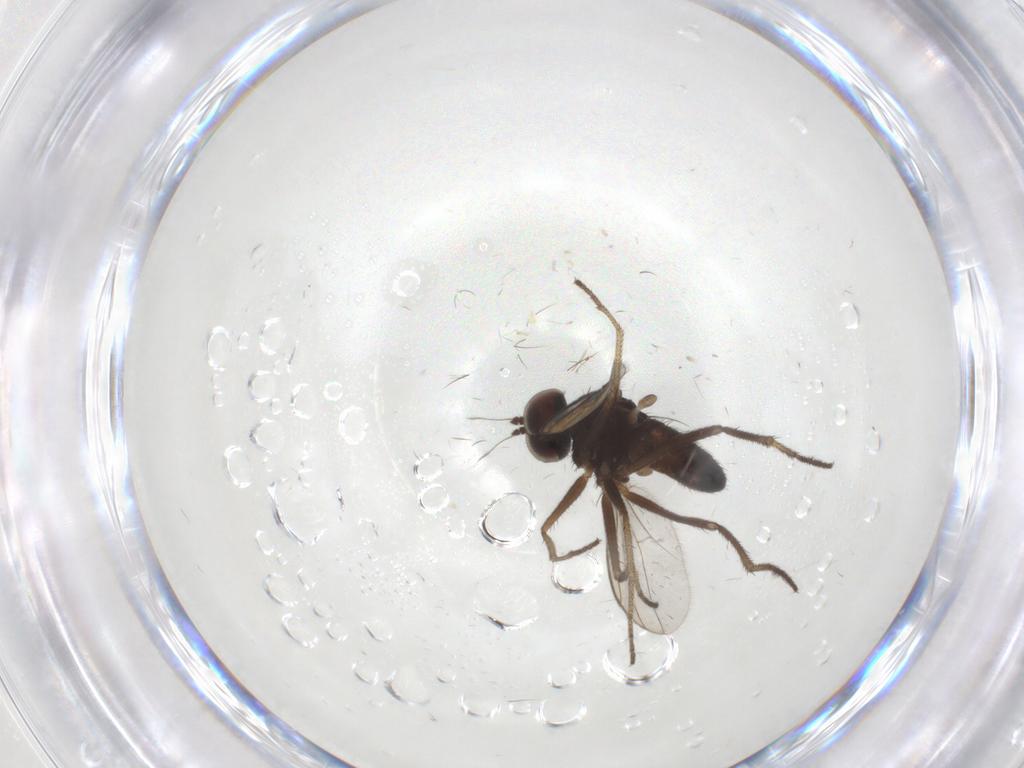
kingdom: Animalia
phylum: Arthropoda
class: Insecta
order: Diptera
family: Dolichopodidae
